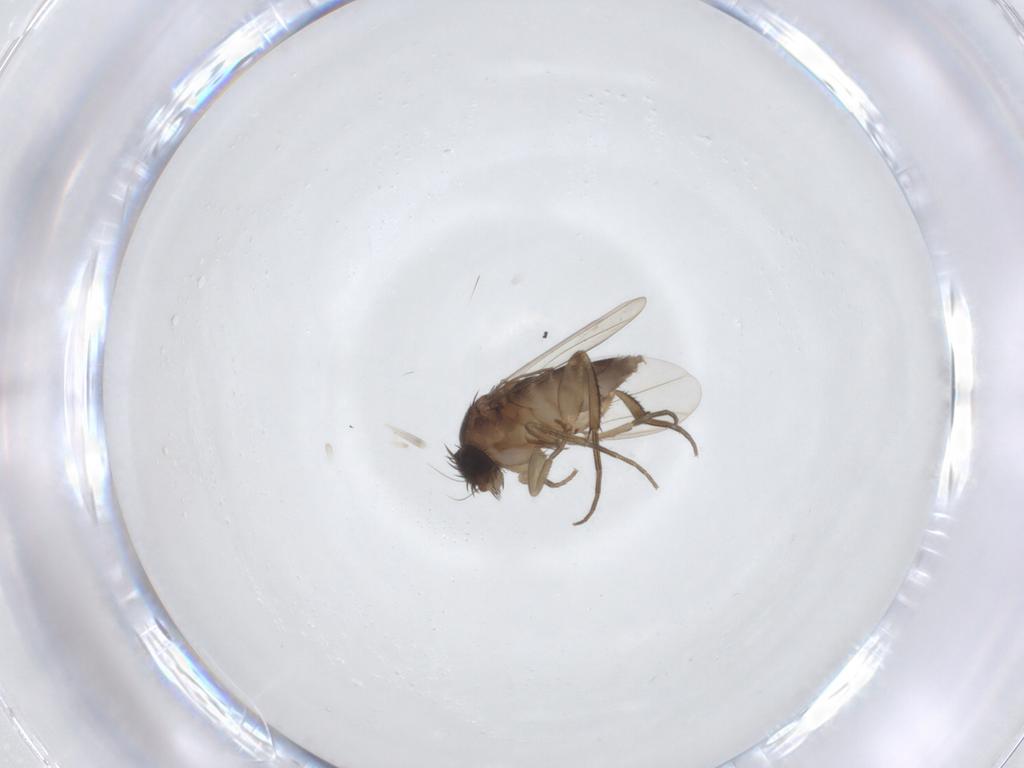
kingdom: Animalia
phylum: Arthropoda
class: Insecta
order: Diptera
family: Phoridae
